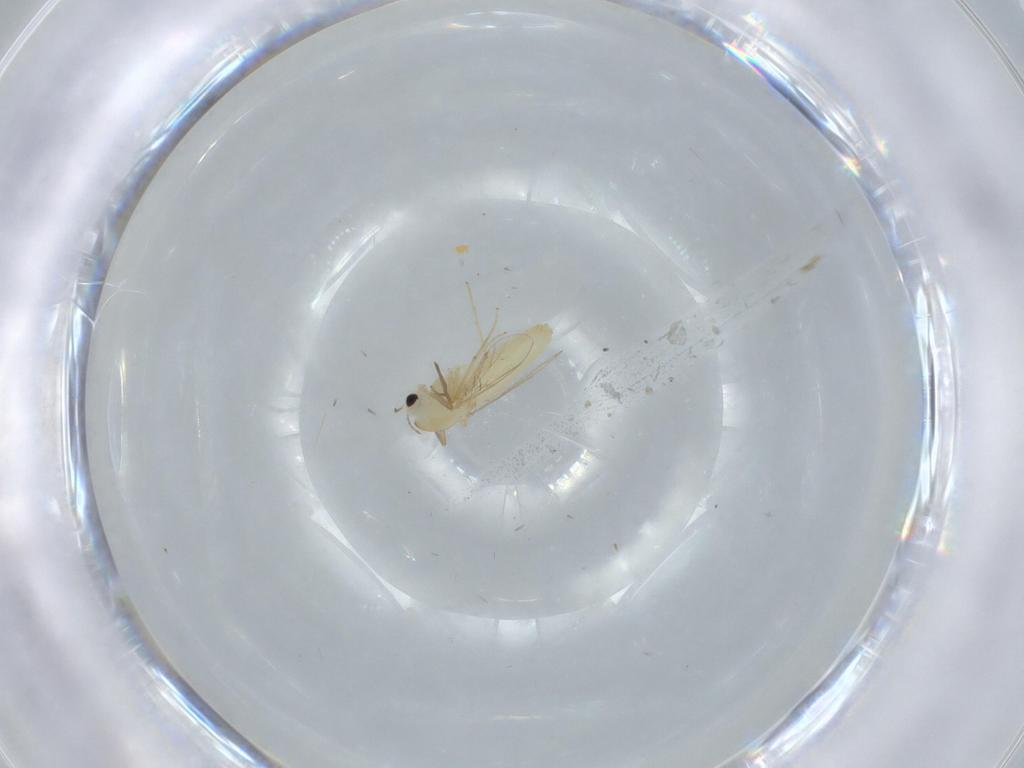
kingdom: Animalia
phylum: Arthropoda
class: Insecta
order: Diptera
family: Chironomidae
